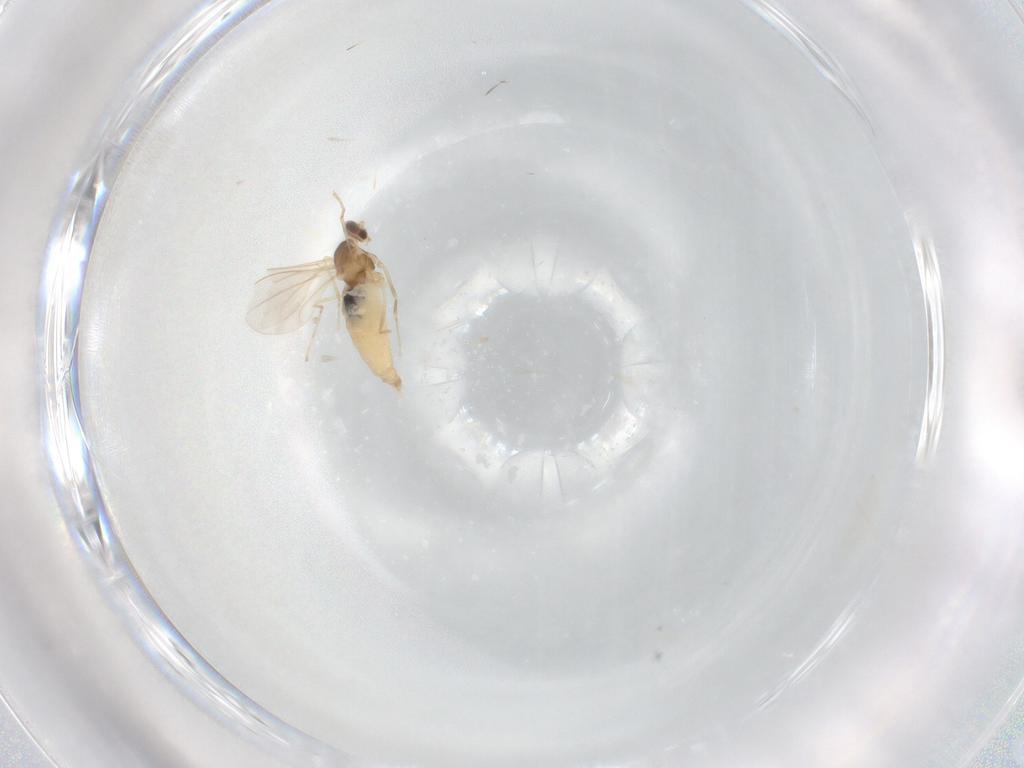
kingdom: Animalia
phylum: Arthropoda
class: Insecta
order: Diptera
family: Cecidomyiidae
